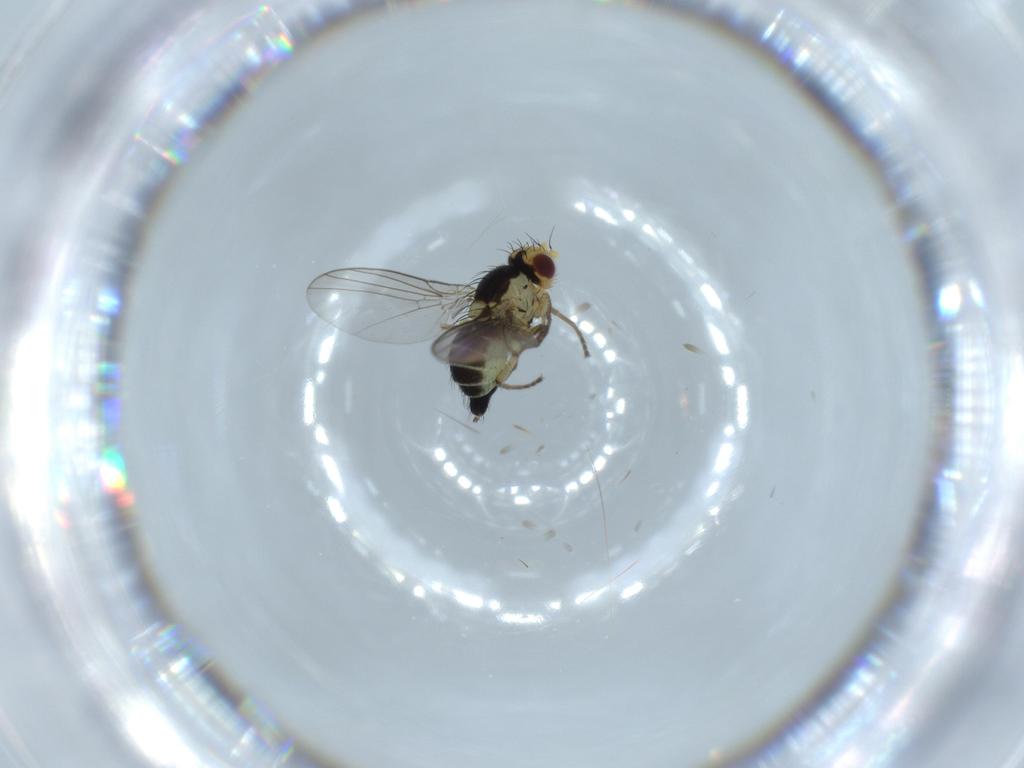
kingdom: Animalia
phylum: Arthropoda
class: Insecta
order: Diptera
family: Agromyzidae
